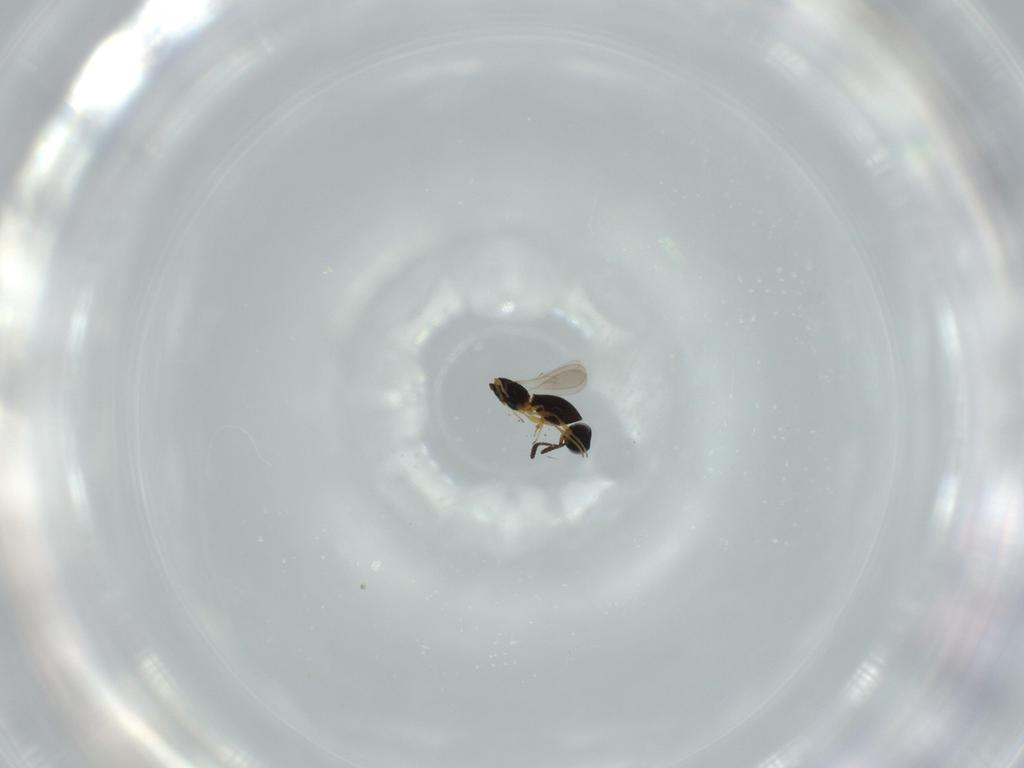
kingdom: Animalia
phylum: Arthropoda
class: Insecta
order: Hymenoptera
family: Scelionidae
